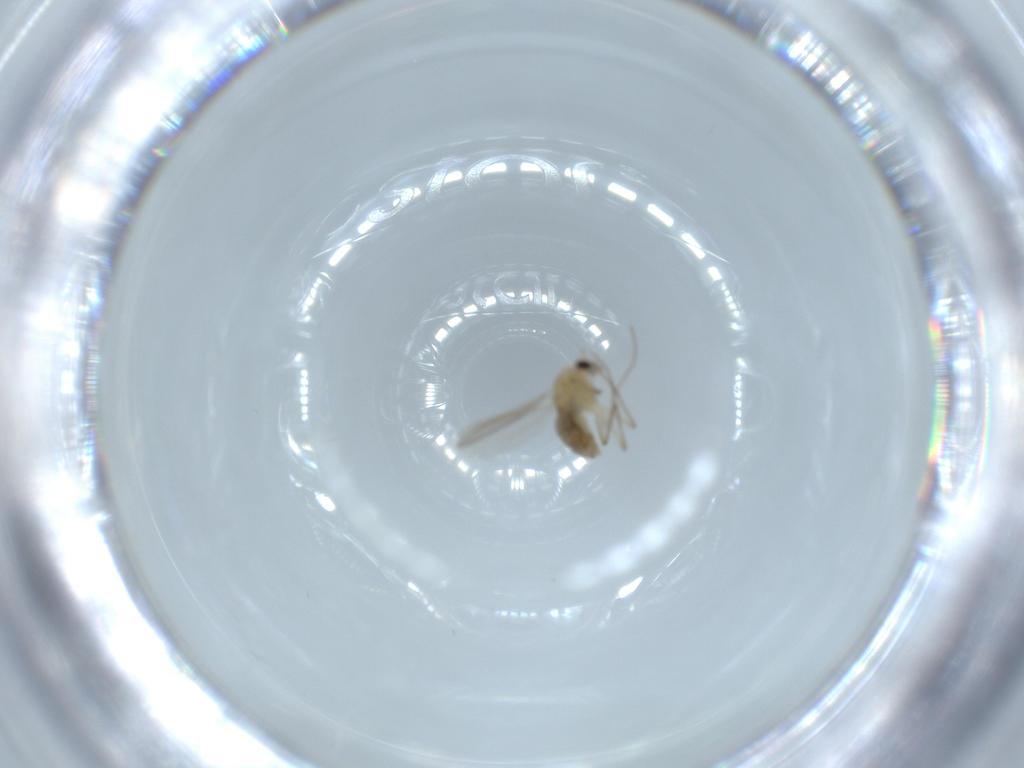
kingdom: Animalia
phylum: Arthropoda
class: Insecta
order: Diptera
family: Chironomidae
